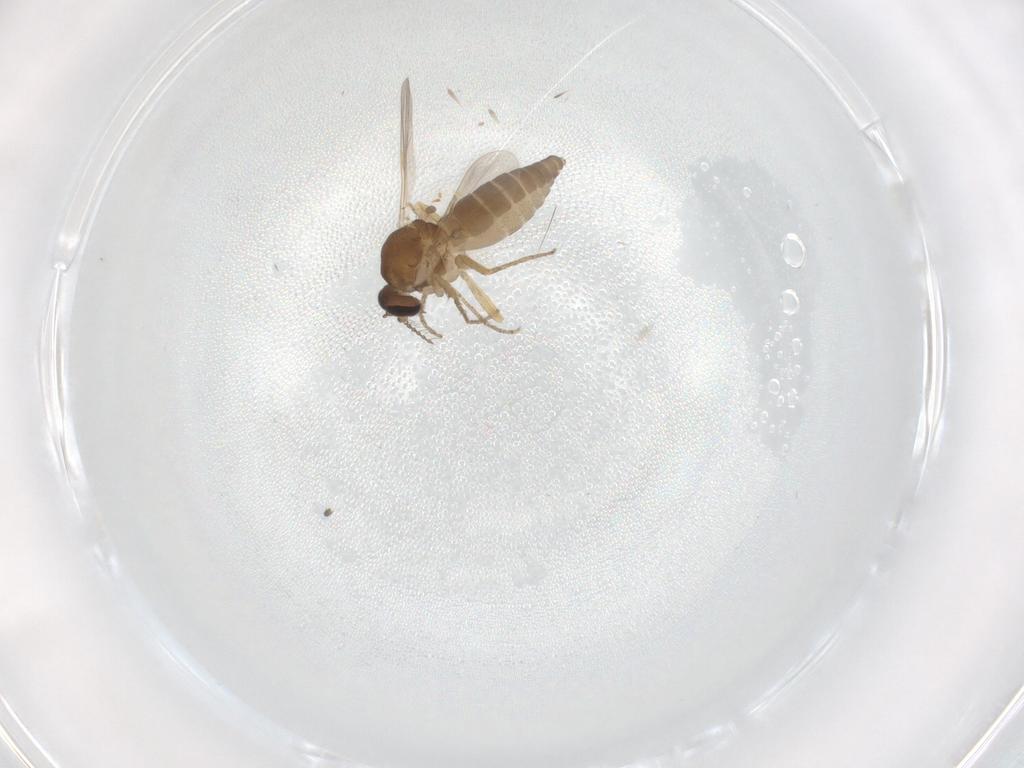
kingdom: Animalia
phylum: Arthropoda
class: Insecta
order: Diptera
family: Ceratopogonidae
